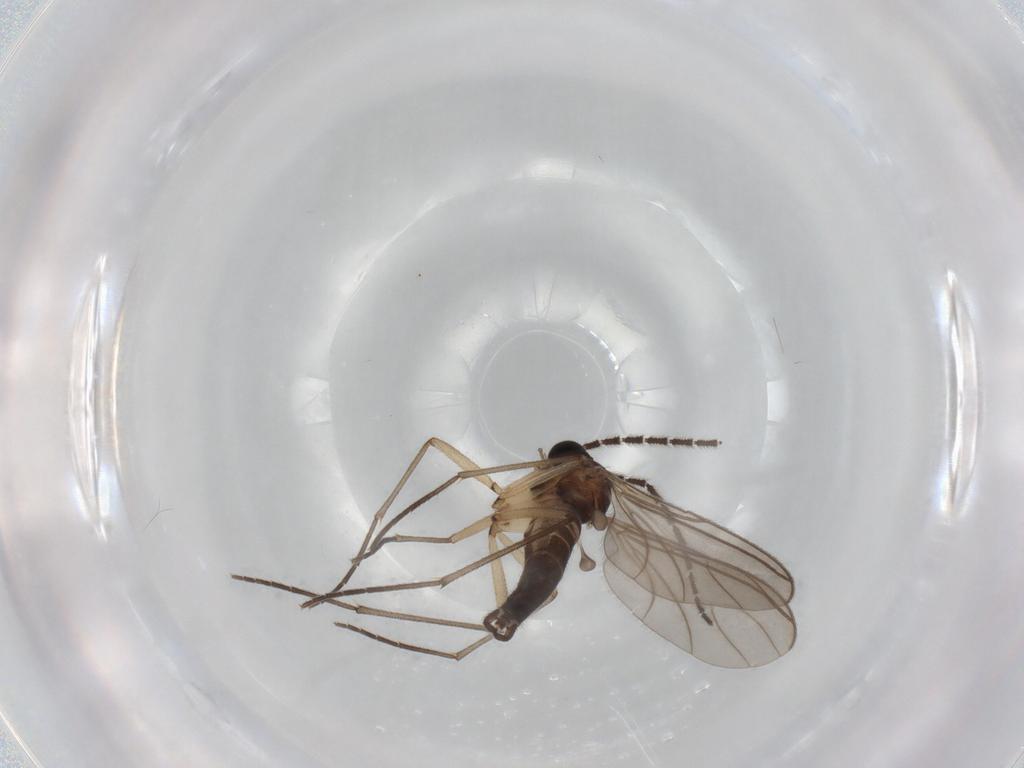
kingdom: Animalia
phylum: Arthropoda
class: Insecta
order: Diptera
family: Sciaridae
